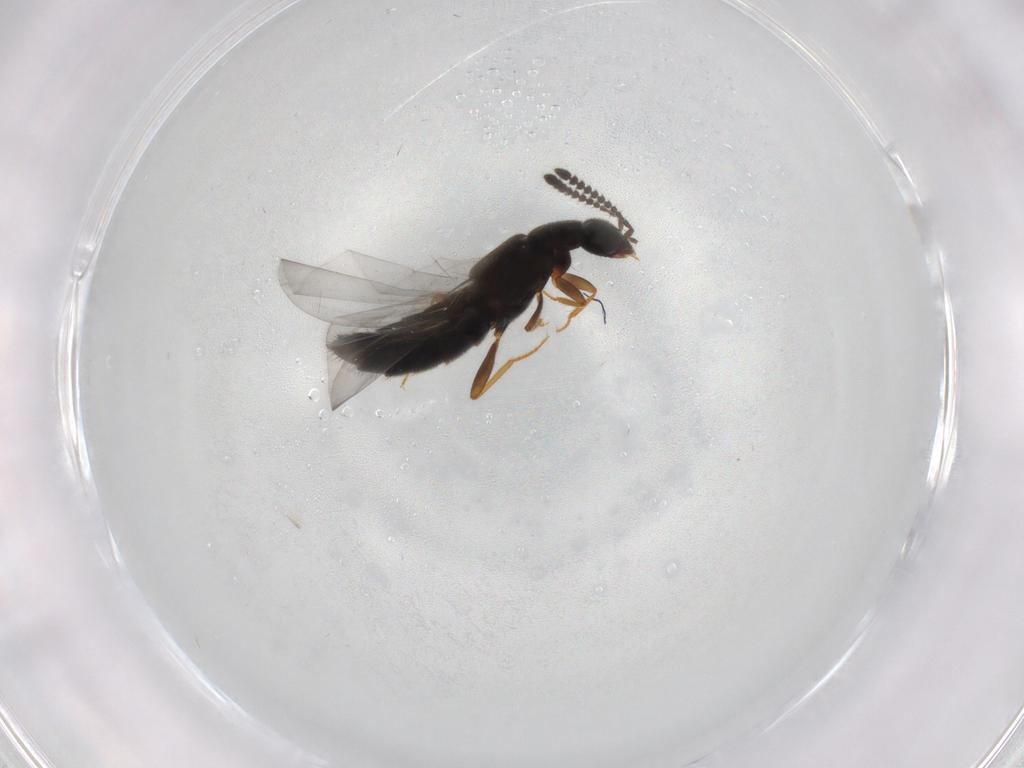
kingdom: Animalia
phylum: Arthropoda
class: Insecta
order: Coleoptera
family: Staphylinidae
